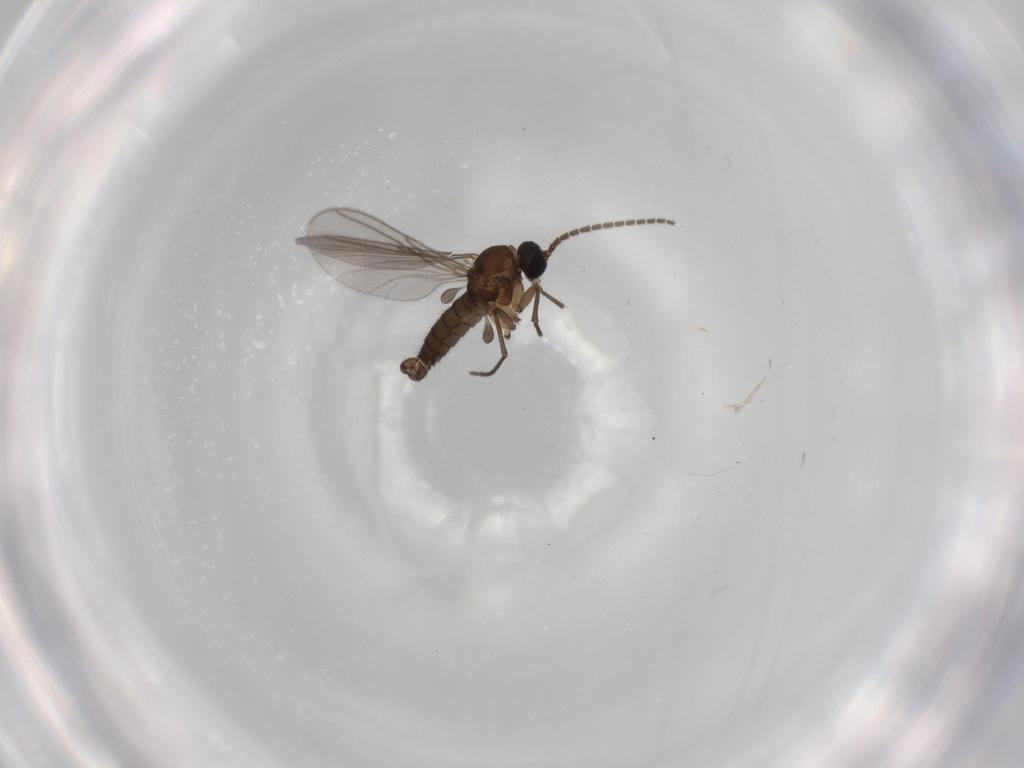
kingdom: Animalia
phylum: Arthropoda
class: Insecta
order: Diptera
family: Sciaridae
